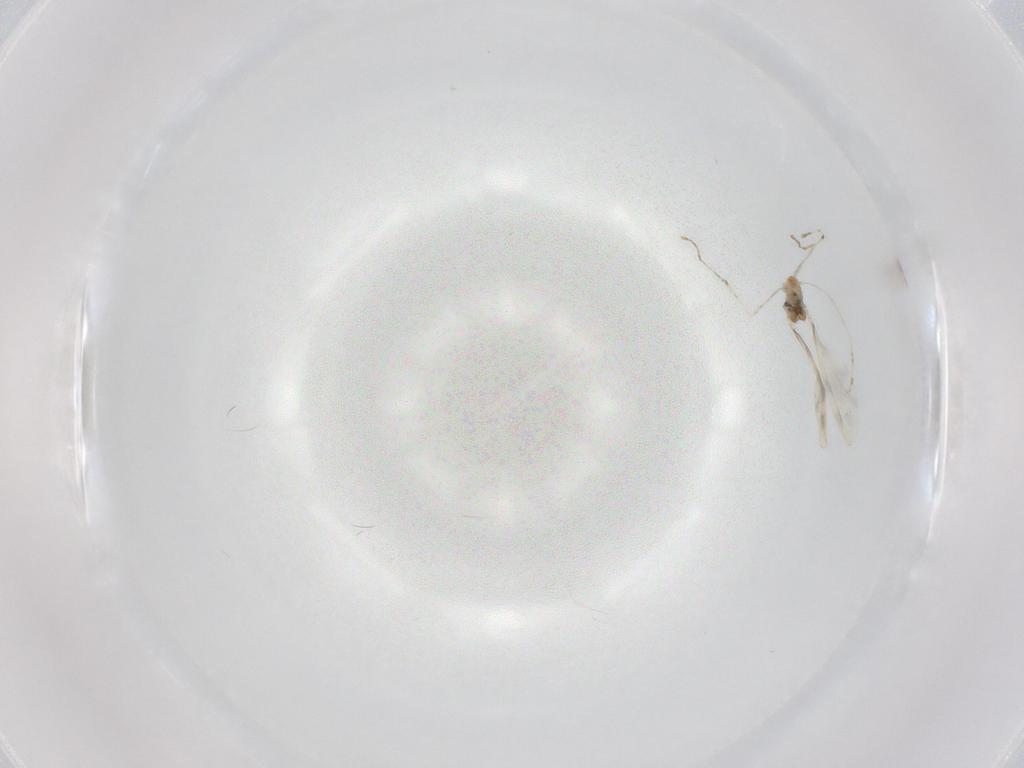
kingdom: Animalia
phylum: Arthropoda
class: Insecta
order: Diptera
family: Cecidomyiidae
